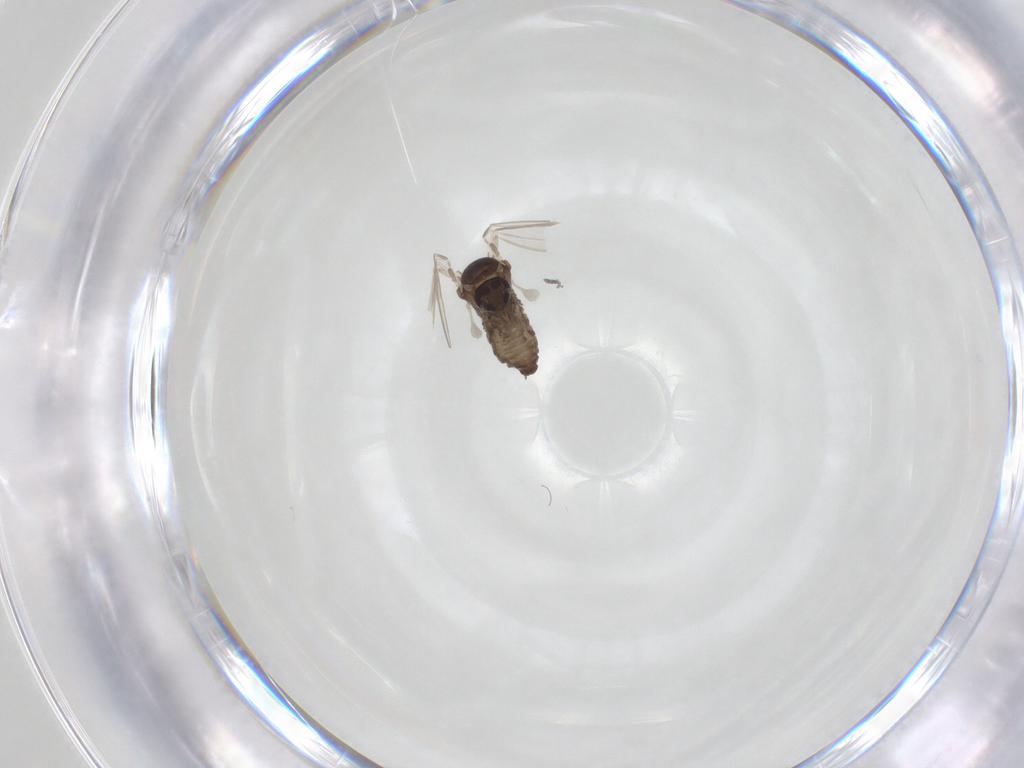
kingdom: Animalia
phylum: Arthropoda
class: Insecta
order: Diptera
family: Psychodidae
